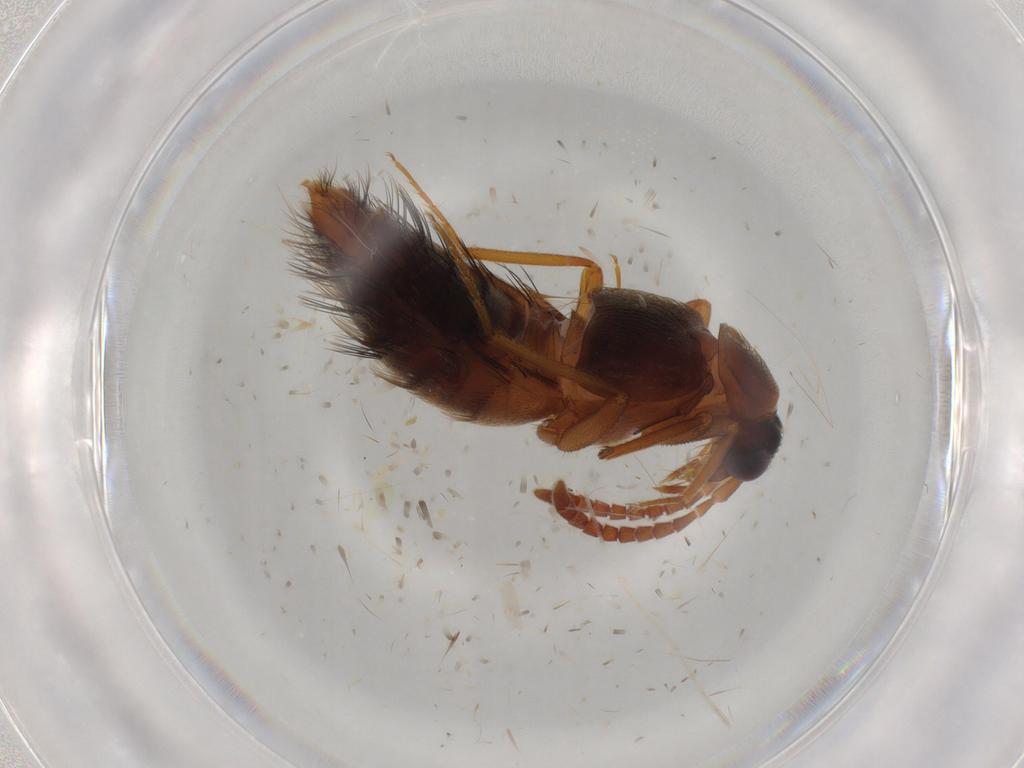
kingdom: Animalia
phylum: Arthropoda
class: Insecta
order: Coleoptera
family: Staphylinidae
